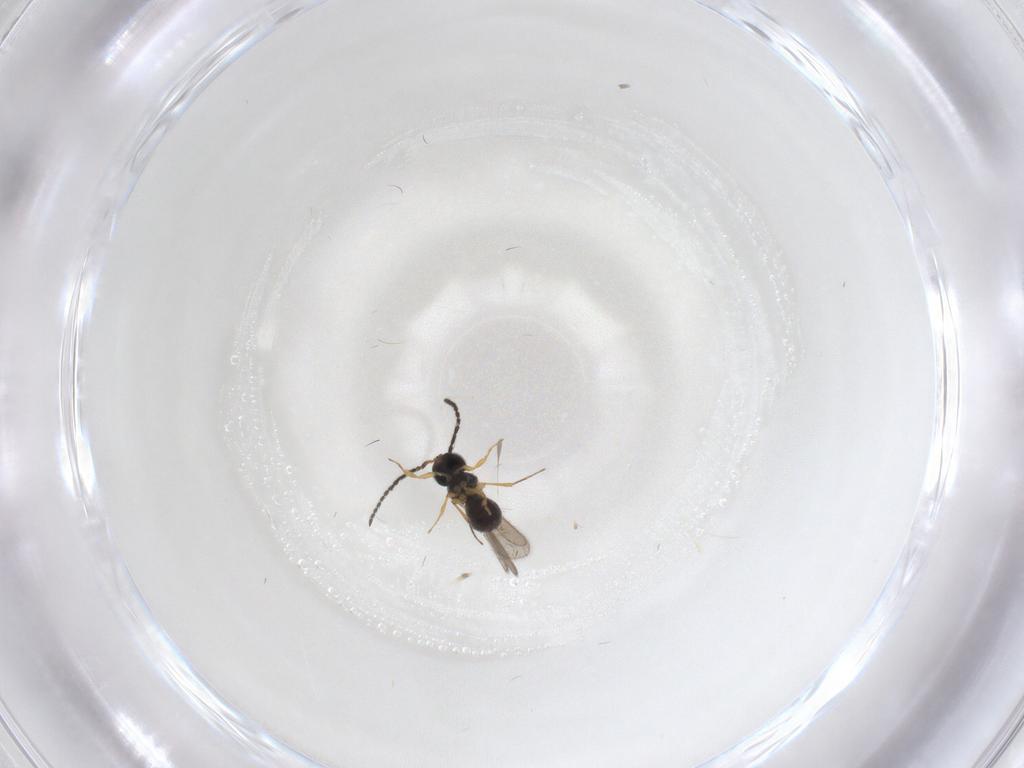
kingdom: Animalia
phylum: Arthropoda
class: Insecta
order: Hymenoptera
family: Scelionidae
